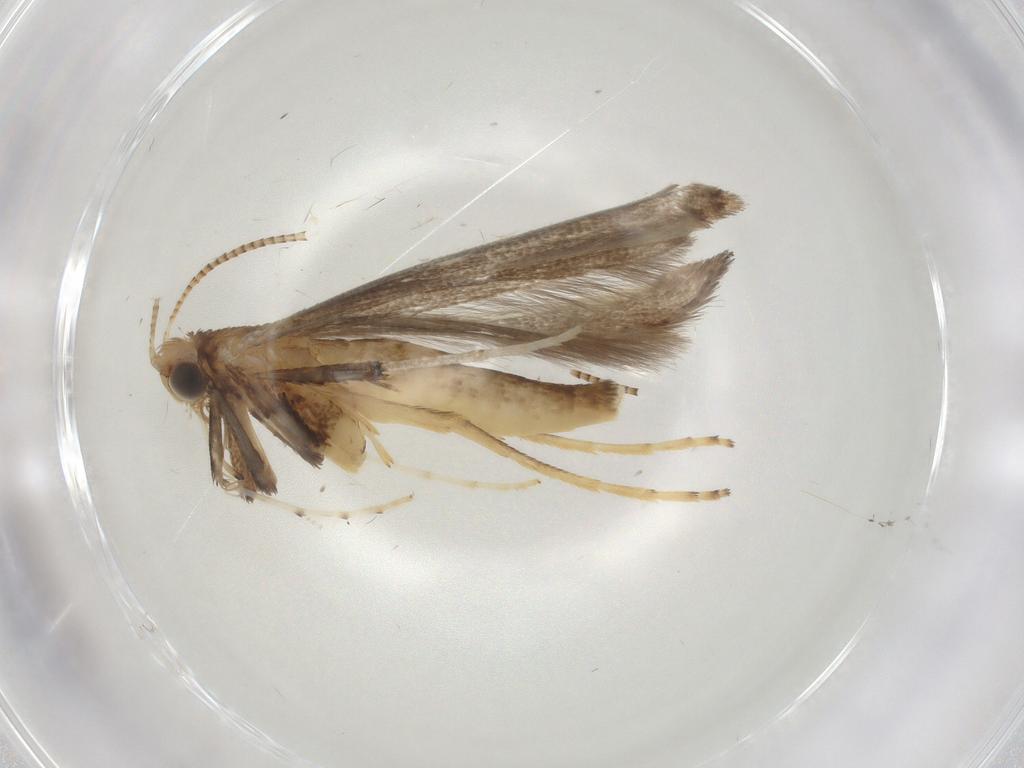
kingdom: Animalia
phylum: Arthropoda
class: Insecta
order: Lepidoptera
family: Gracillariidae
